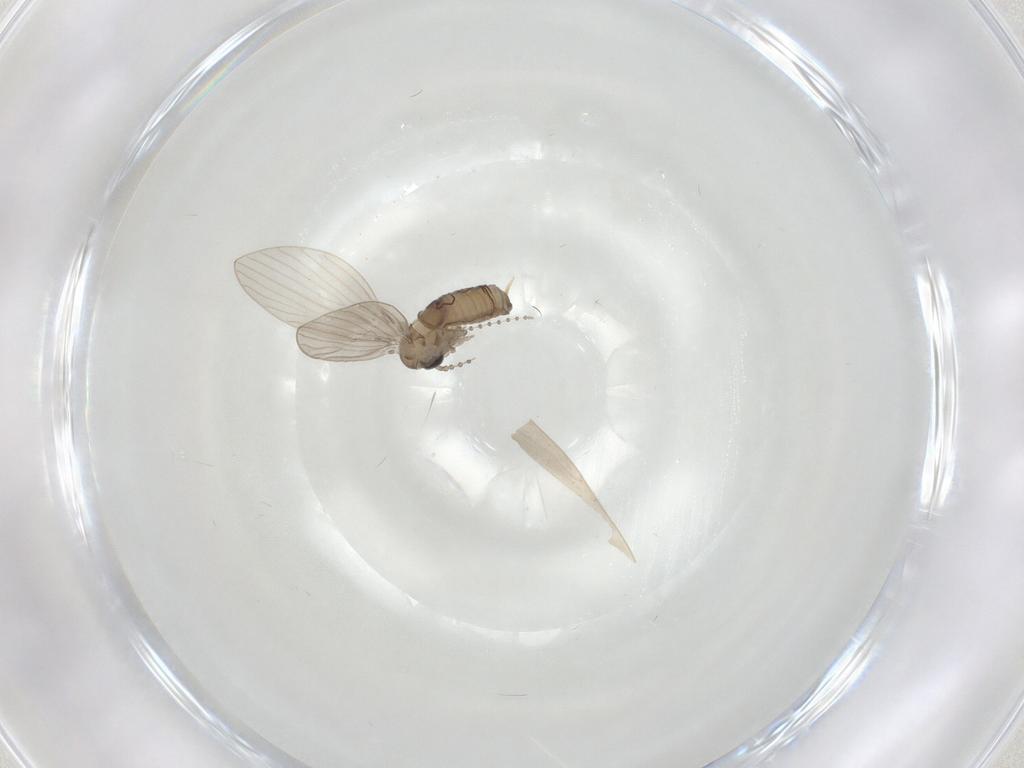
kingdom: Animalia
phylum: Arthropoda
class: Insecta
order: Diptera
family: Psychodidae
